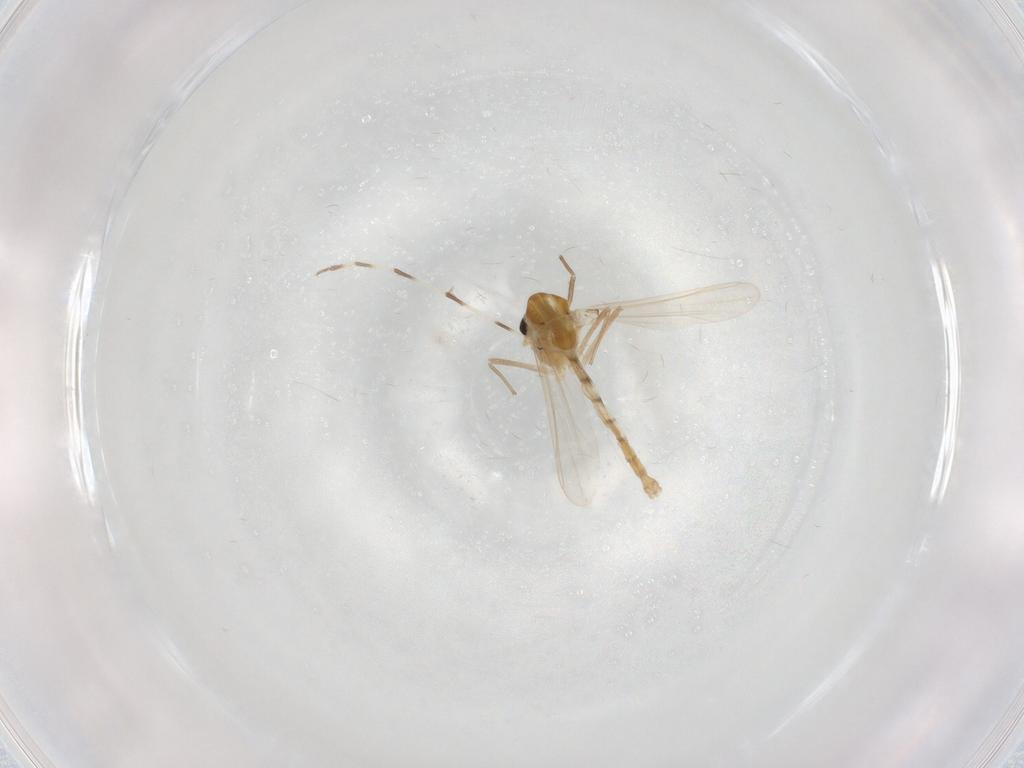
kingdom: Animalia
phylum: Arthropoda
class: Insecta
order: Diptera
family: Chironomidae
